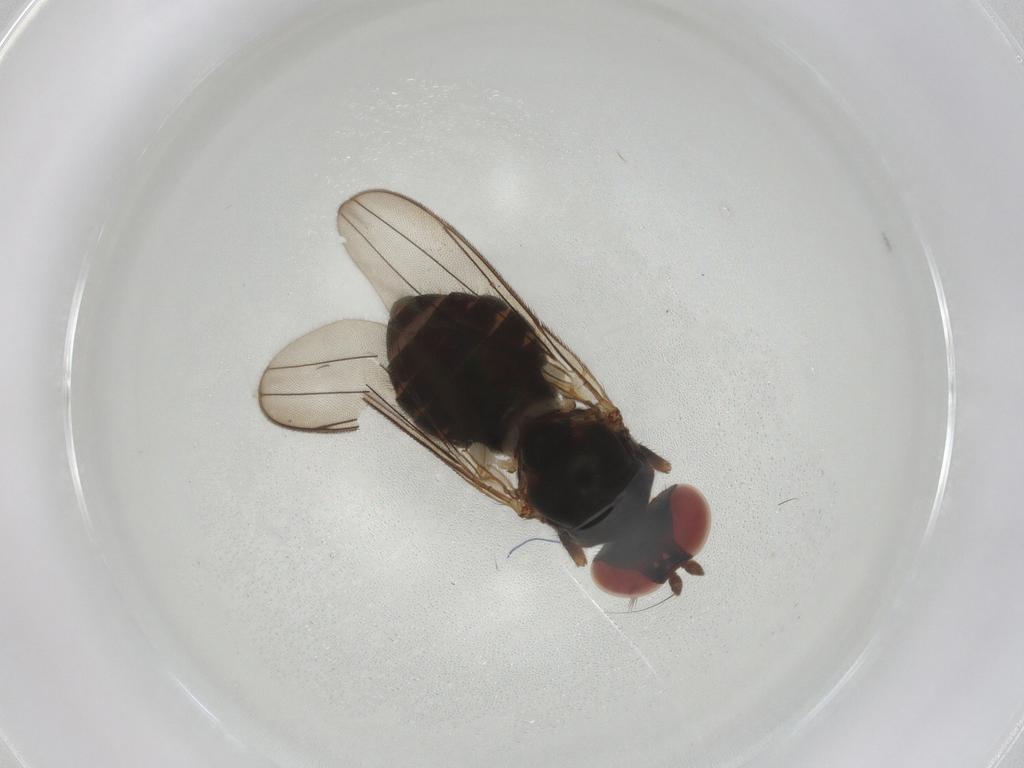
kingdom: Animalia
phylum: Arthropoda
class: Insecta
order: Diptera
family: Aulacigastridae
